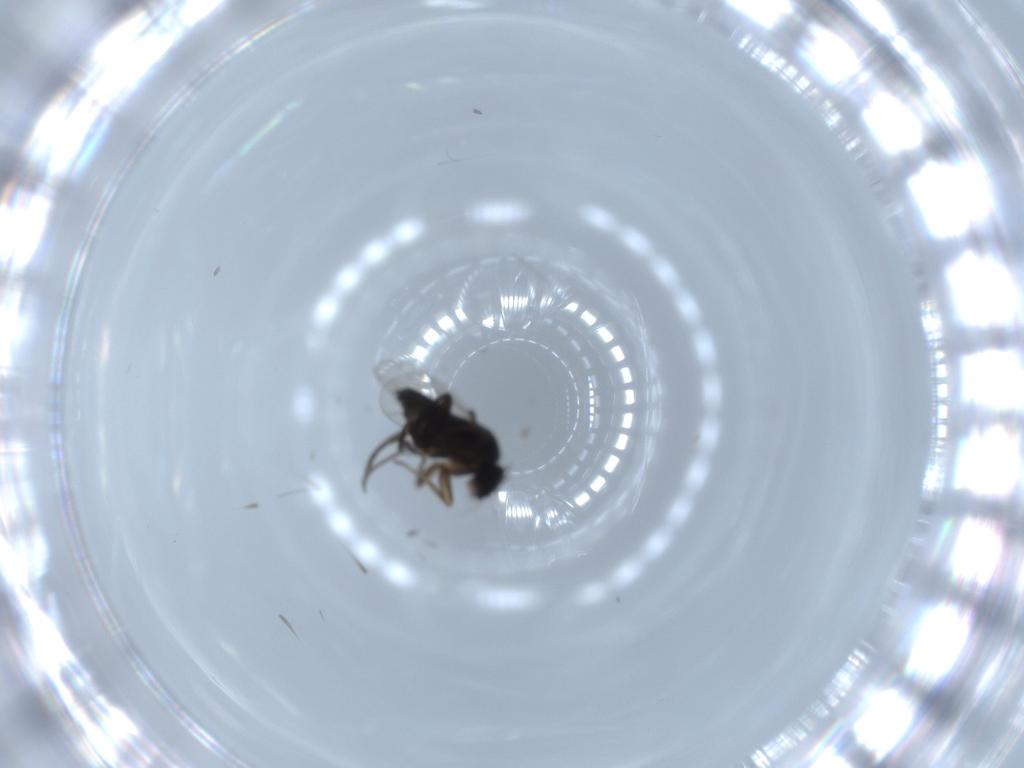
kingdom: Animalia
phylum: Arthropoda
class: Insecta
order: Diptera
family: Phoridae
